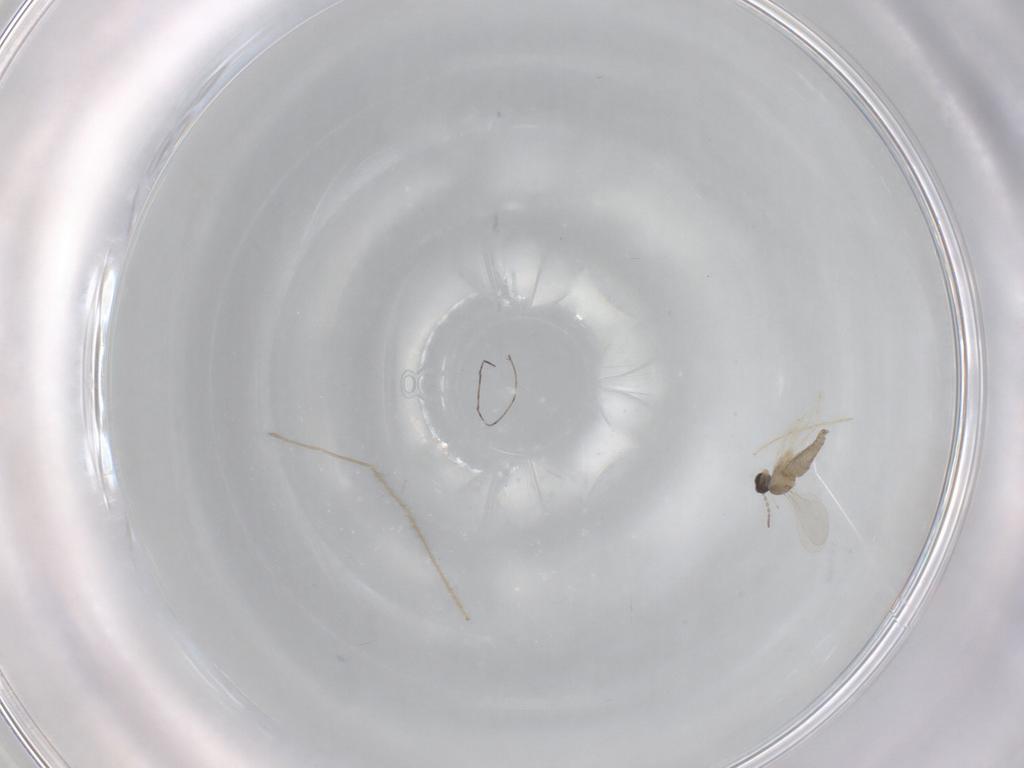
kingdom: Animalia
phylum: Arthropoda
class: Insecta
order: Diptera
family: Cecidomyiidae
